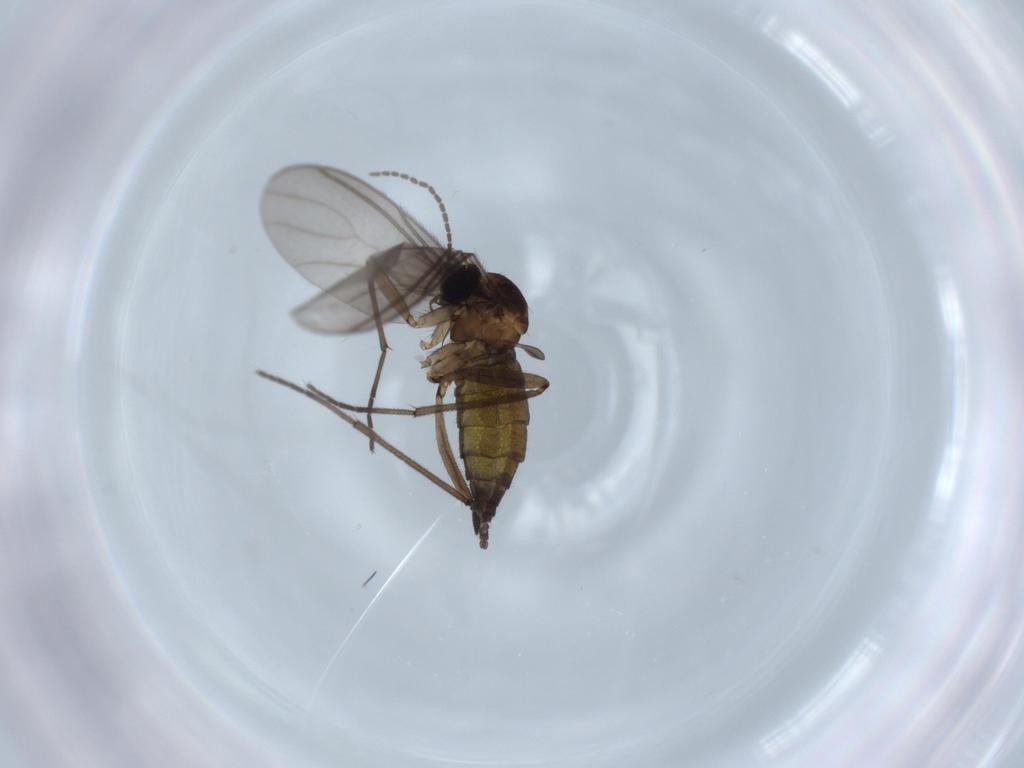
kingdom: Animalia
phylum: Arthropoda
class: Insecta
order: Diptera
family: Sciaridae
